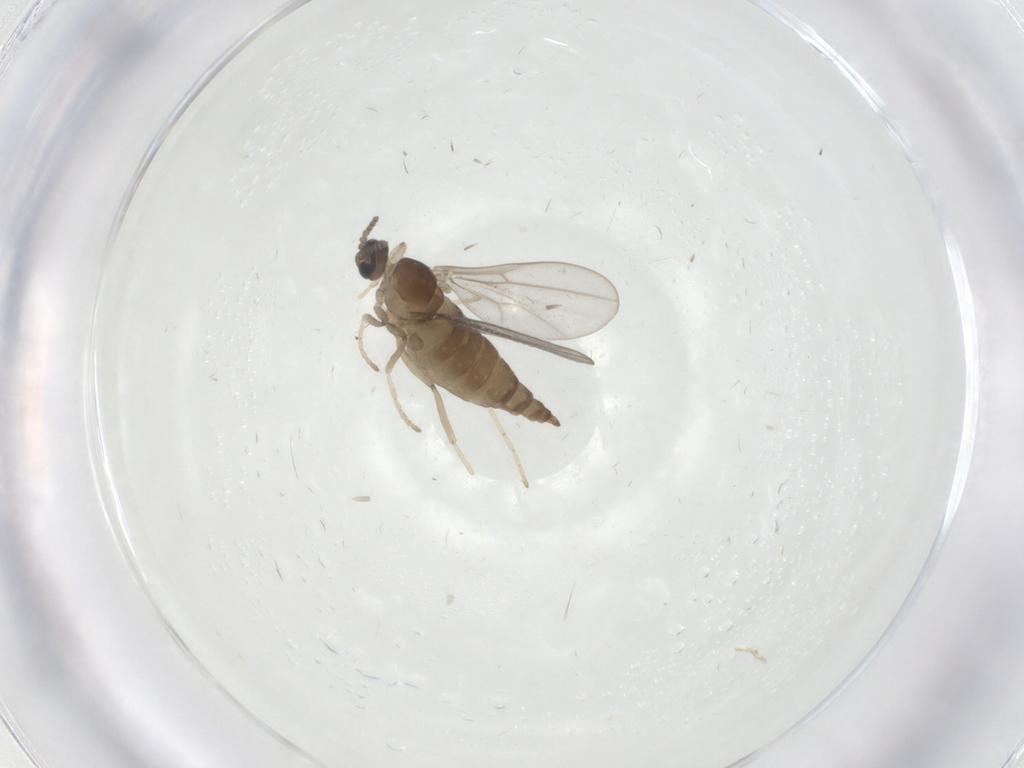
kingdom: Animalia
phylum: Arthropoda
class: Insecta
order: Diptera
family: Cecidomyiidae
